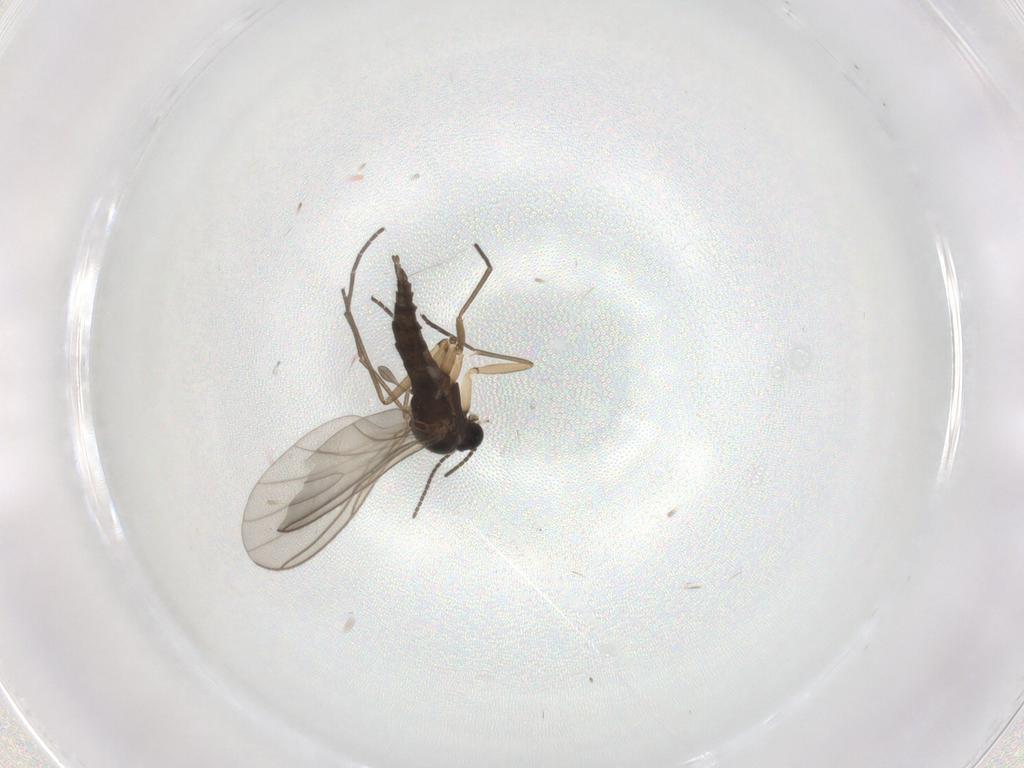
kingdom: Animalia
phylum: Arthropoda
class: Insecta
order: Diptera
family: Sciaridae
